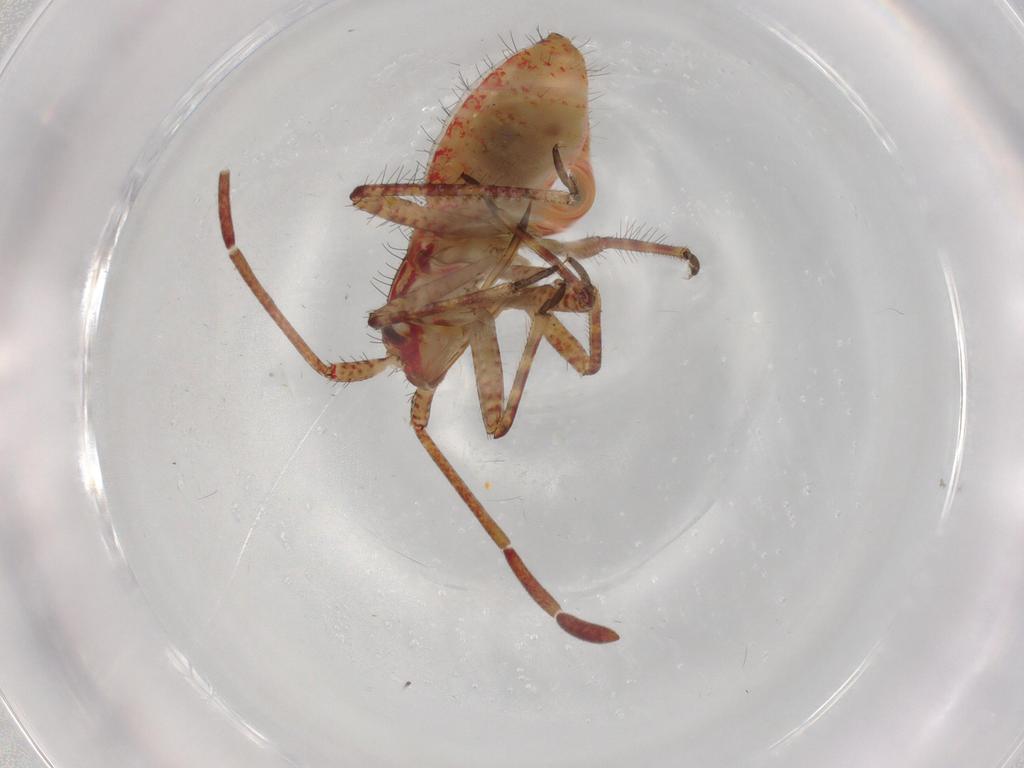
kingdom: Animalia
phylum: Arthropoda
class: Insecta
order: Hemiptera
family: Miridae
